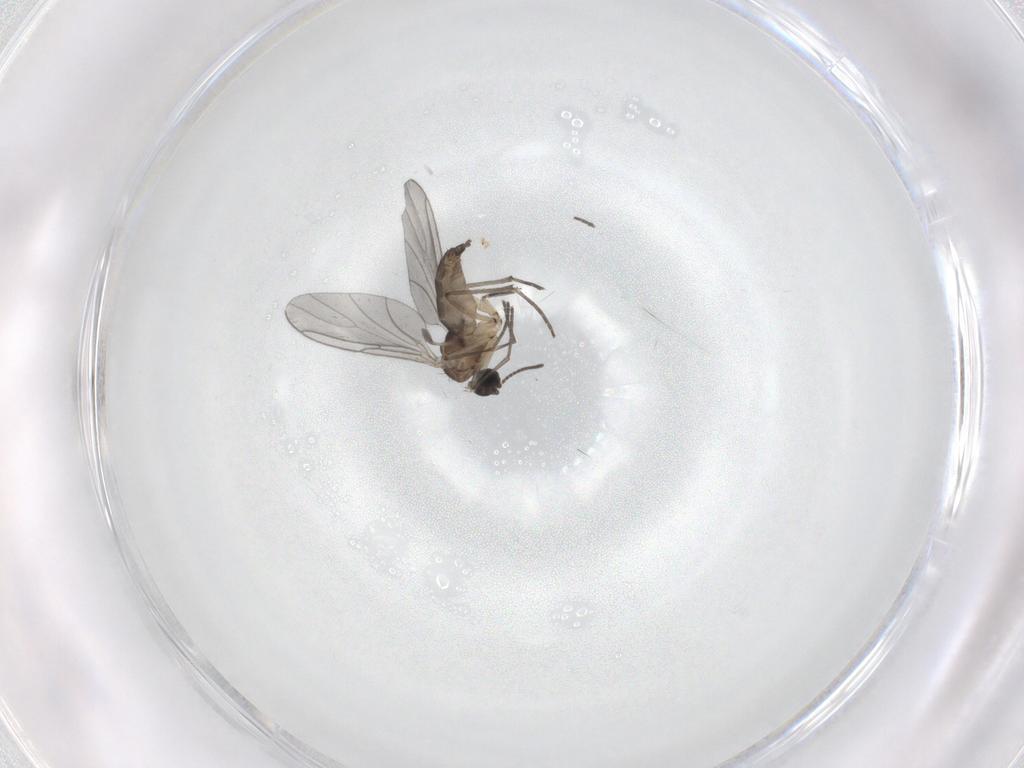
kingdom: Animalia
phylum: Arthropoda
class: Insecta
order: Diptera
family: Sciaridae
